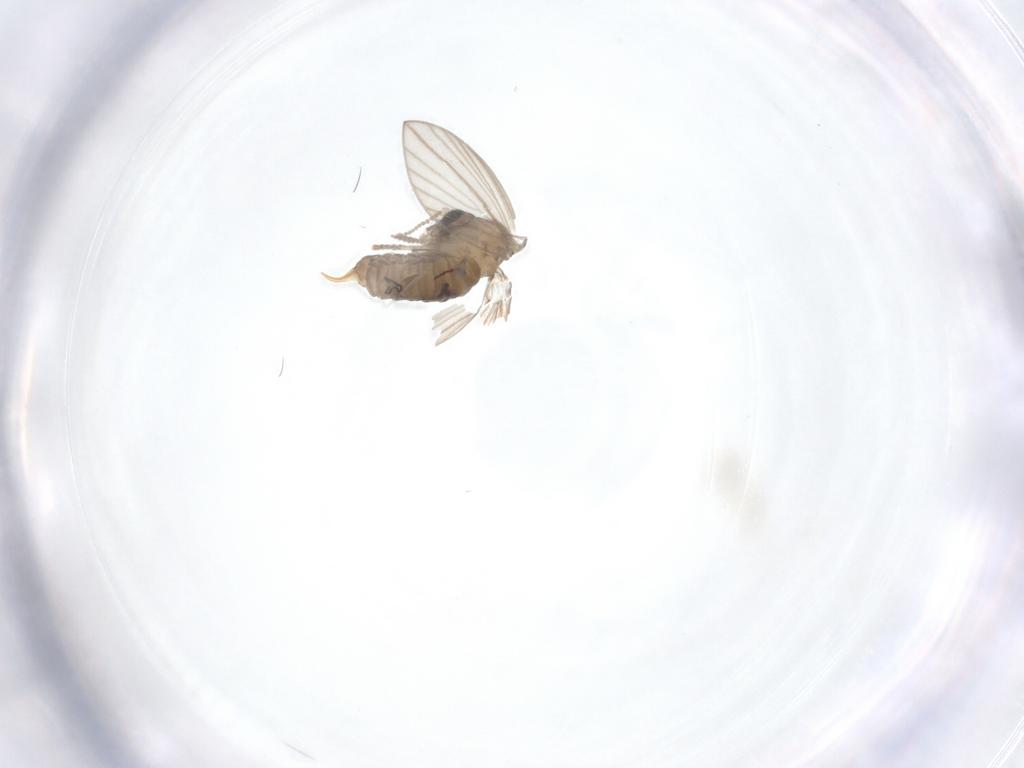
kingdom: Animalia
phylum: Arthropoda
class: Insecta
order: Diptera
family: Psychodidae
